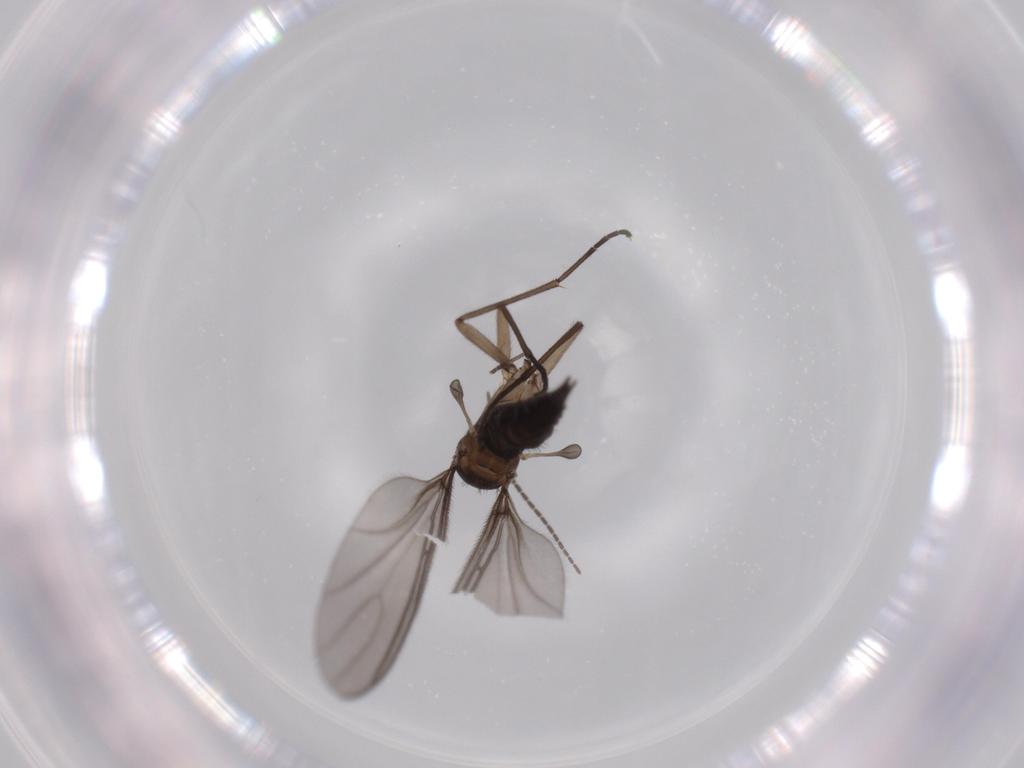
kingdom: Animalia
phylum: Arthropoda
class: Insecta
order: Diptera
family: Sciaridae
